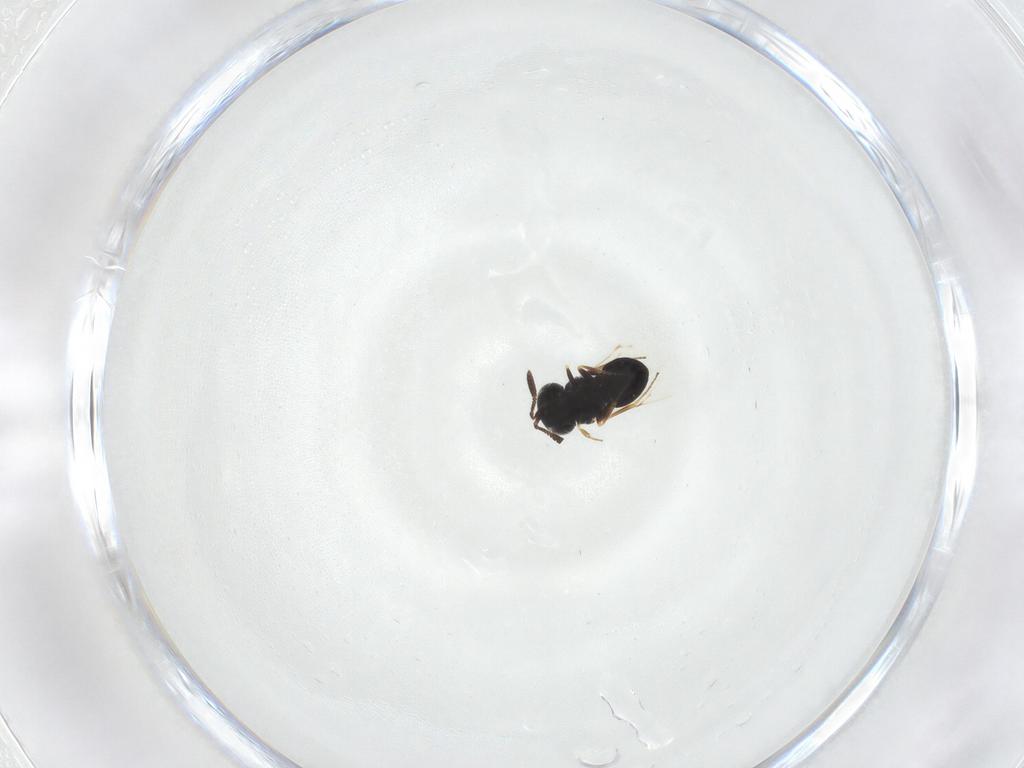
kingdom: Animalia
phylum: Arthropoda
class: Insecta
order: Hymenoptera
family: Scelionidae
